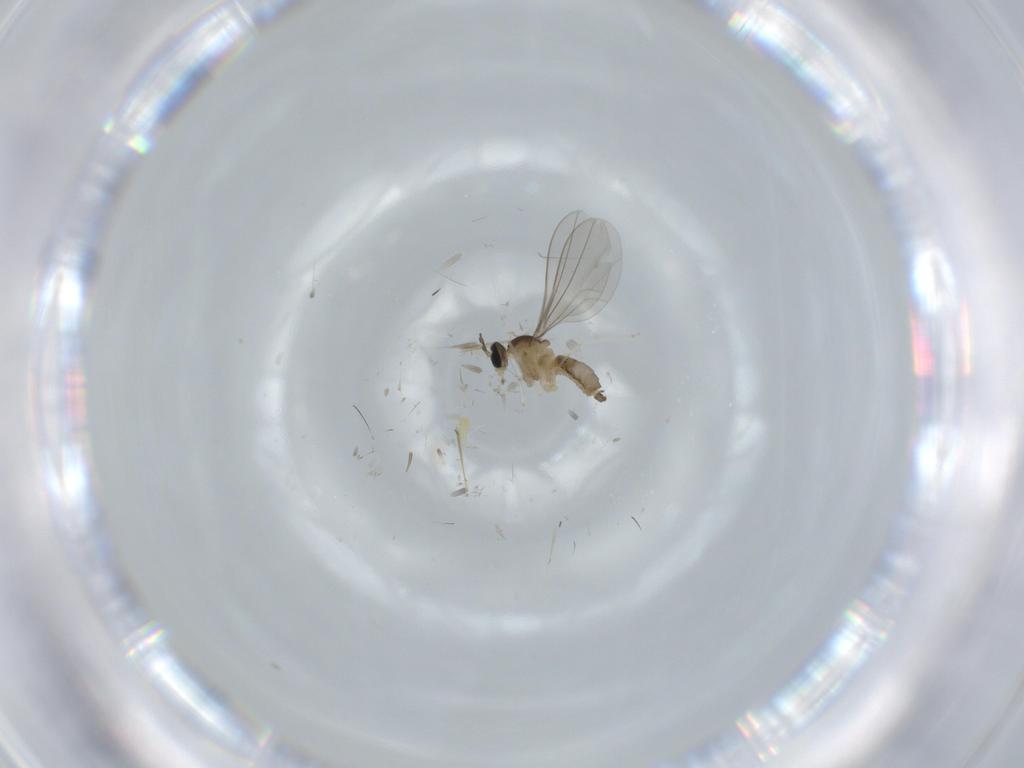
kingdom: Animalia
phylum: Arthropoda
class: Insecta
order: Diptera
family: Cecidomyiidae
